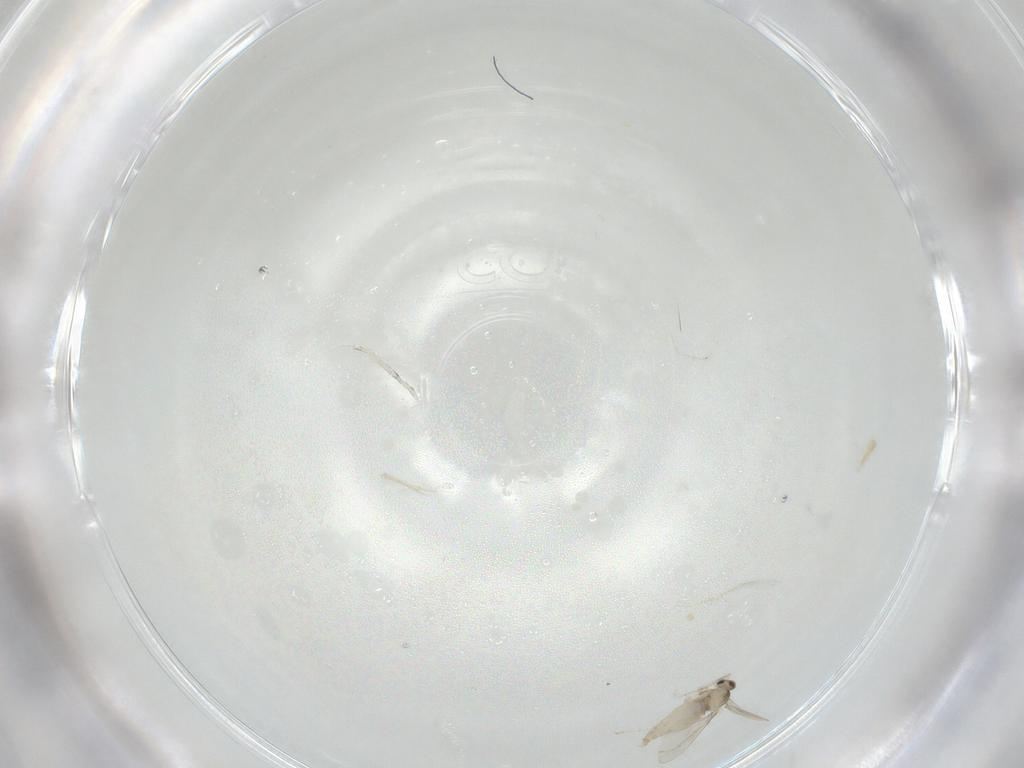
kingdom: Animalia
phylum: Arthropoda
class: Insecta
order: Diptera
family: Cecidomyiidae
